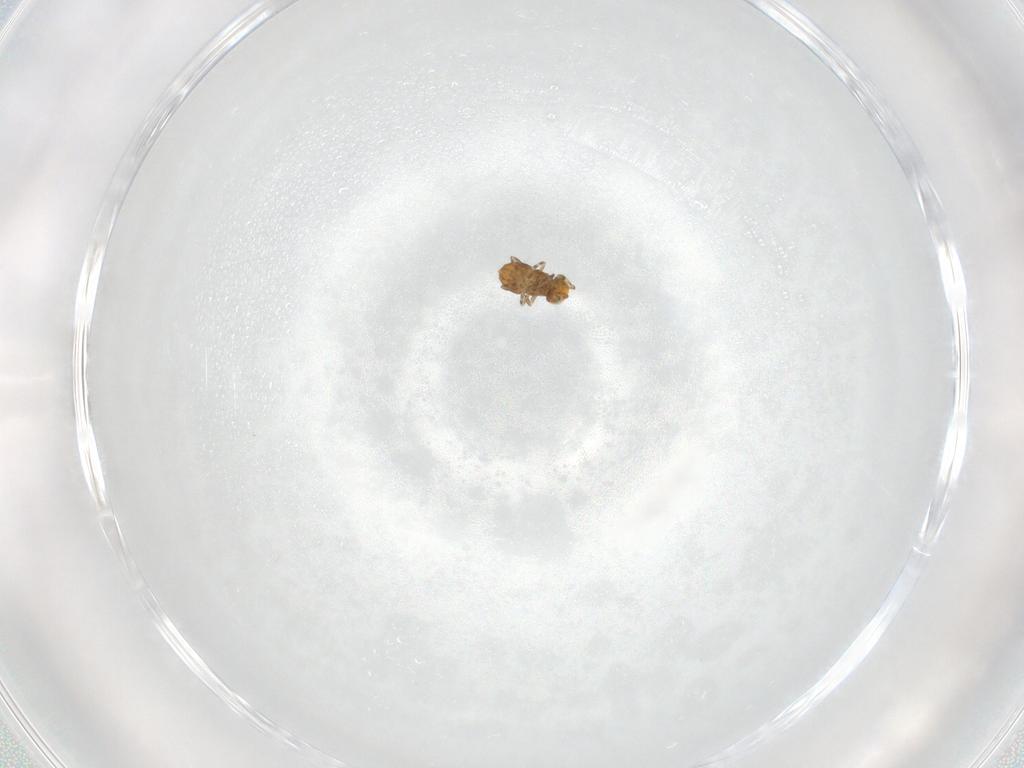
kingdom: Animalia
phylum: Arthropoda
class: Insecta
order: Hymenoptera
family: Encyrtidae
